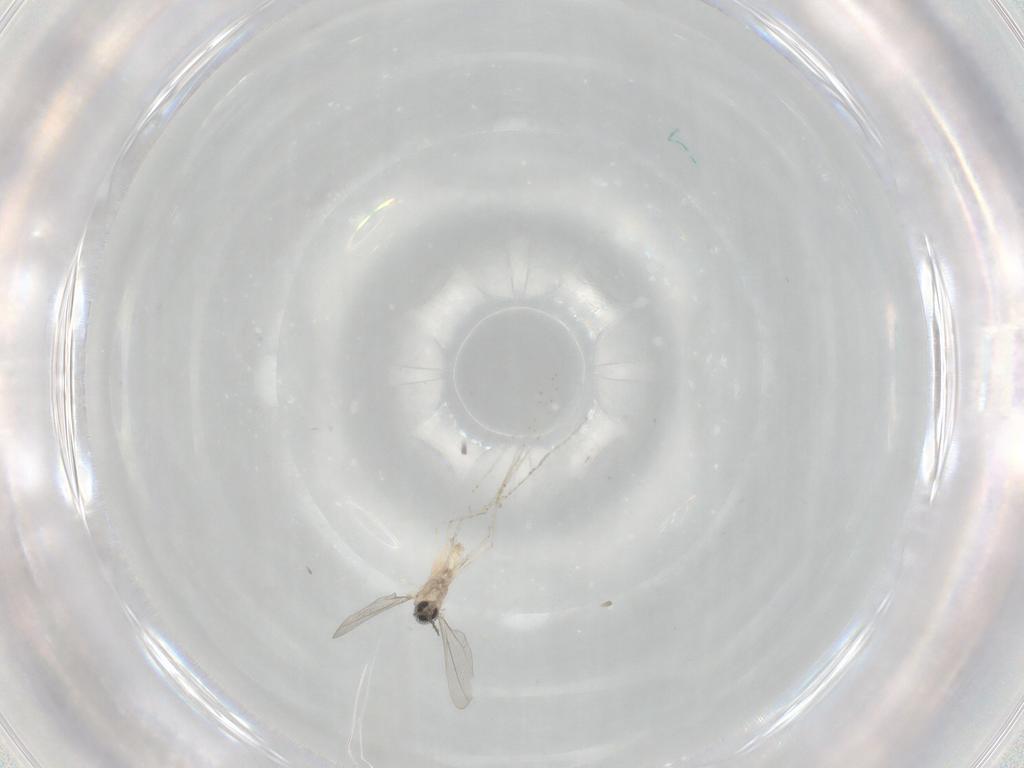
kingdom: Animalia
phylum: Arthropoda
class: Insecta
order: Diptera
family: Cecidomyiidae
